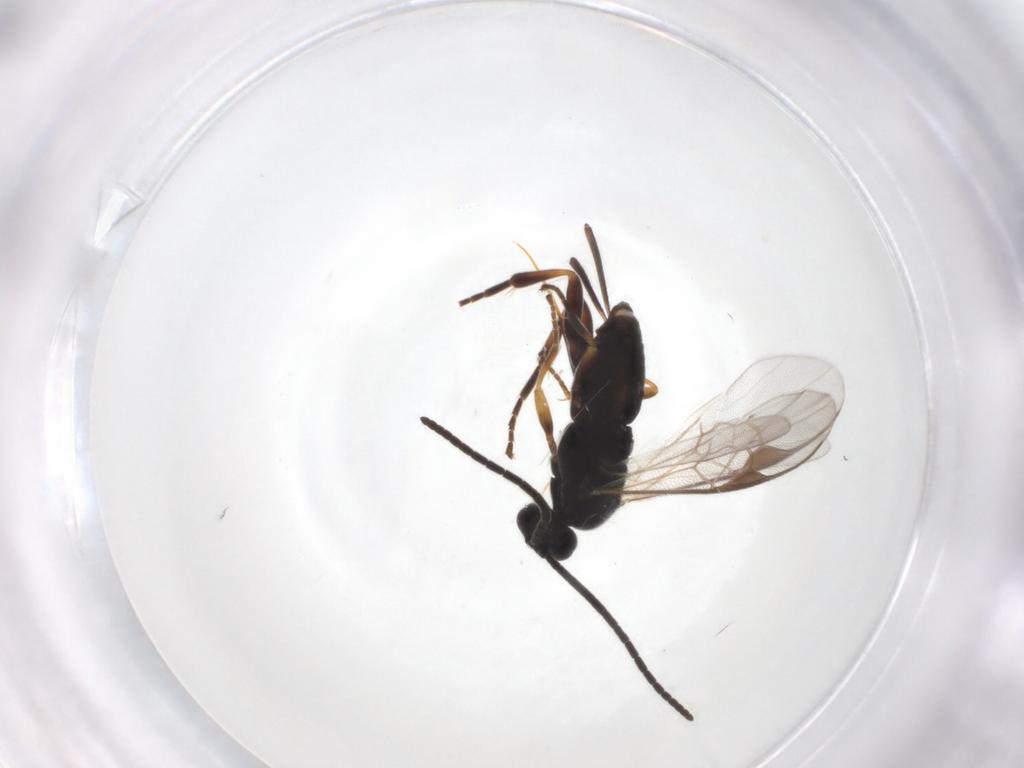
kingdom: Animalia
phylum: Arthropoda
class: Insecta
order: Hymenoptera
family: Braconidae
